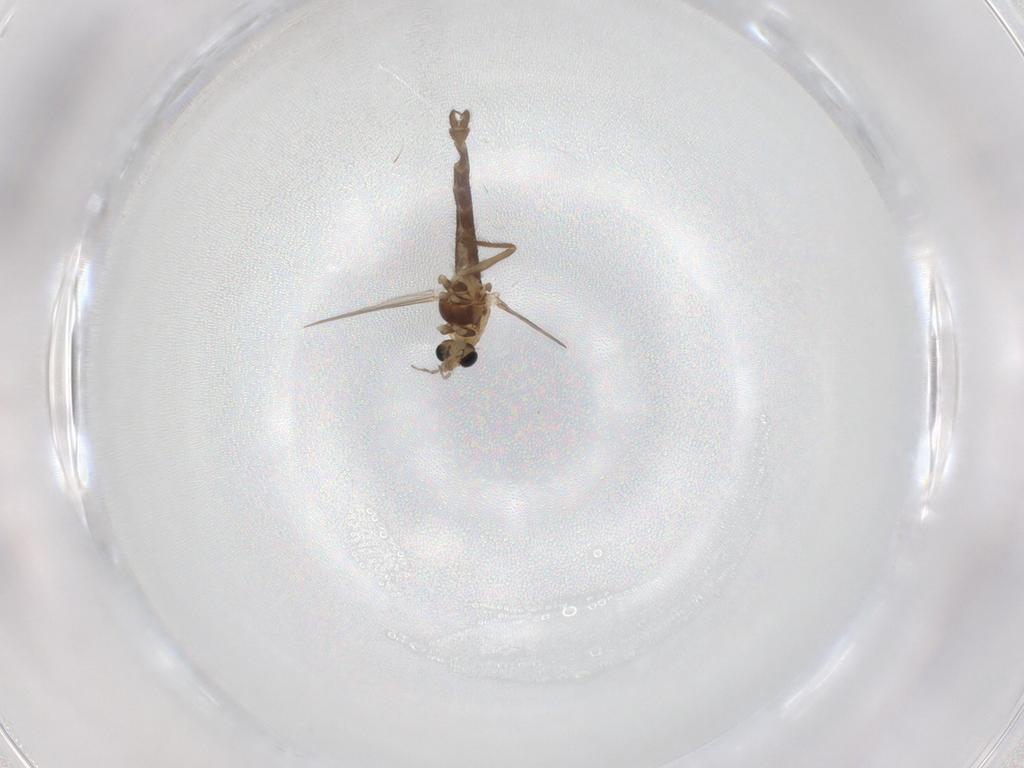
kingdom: Animalia
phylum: Arthropoda
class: Insecta
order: Diptera
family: Chironomidae
